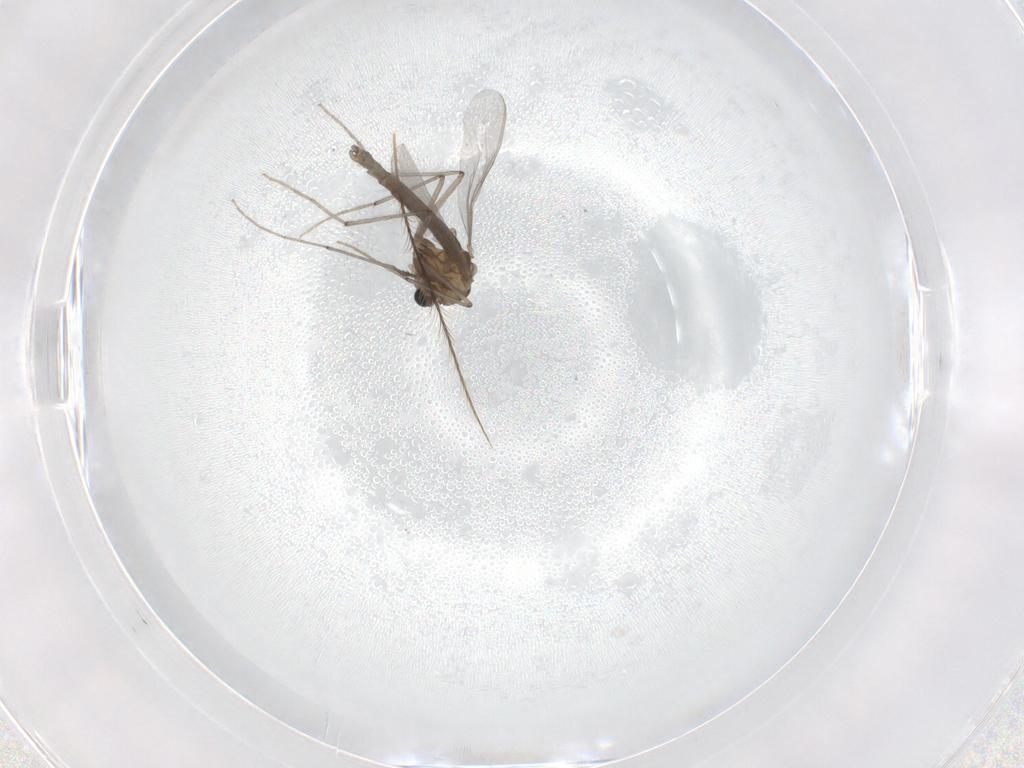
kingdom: Animalia
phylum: Arthropoda
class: Insecta
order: Diptera
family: Chironomidae
